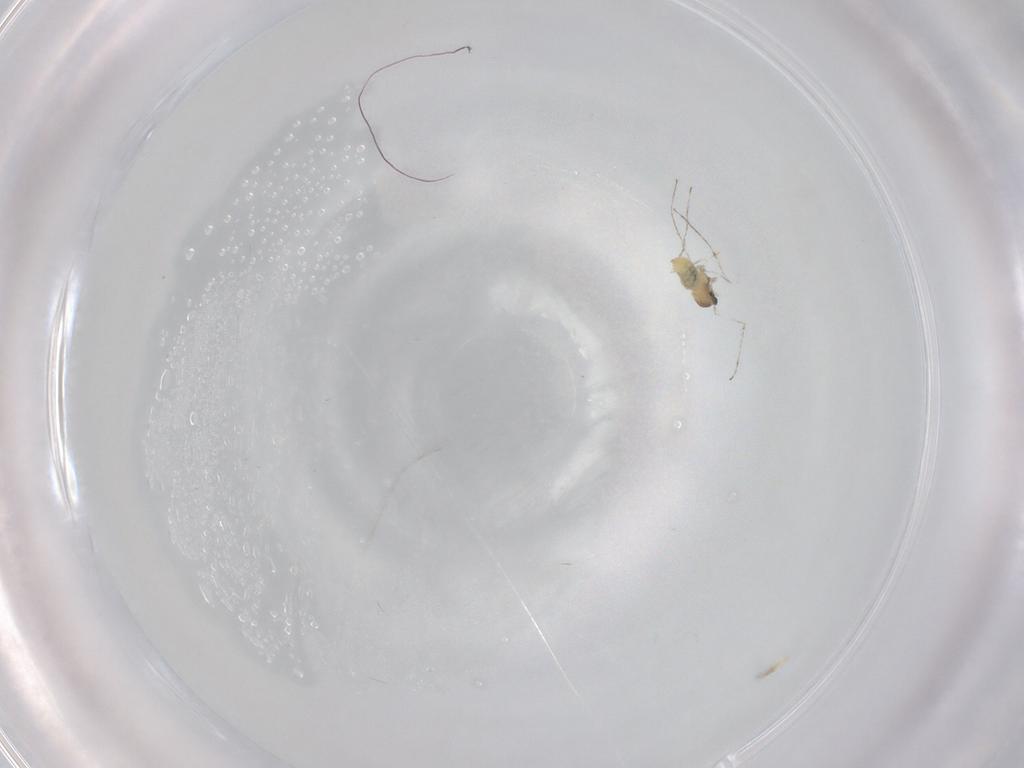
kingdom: Animalia
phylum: Arthropoda
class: Insecta
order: Diptera
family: Cecidomyiidae
